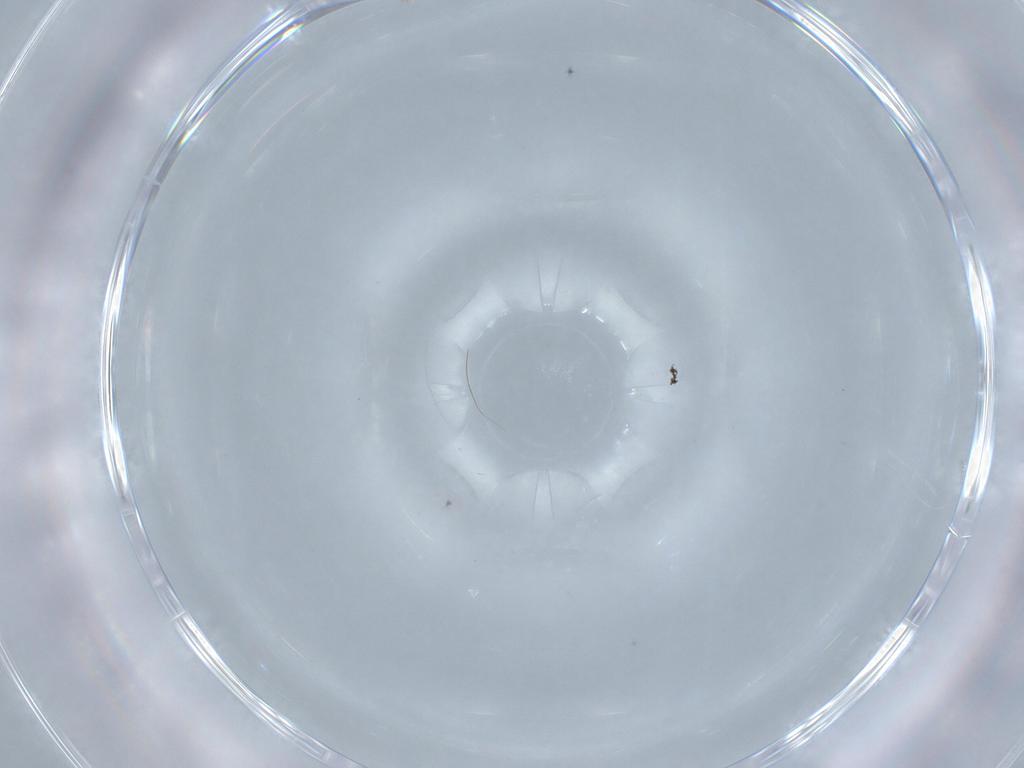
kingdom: Animalia
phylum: Arthropoda
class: Insecta
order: Diptera
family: Cecidomyiidae
